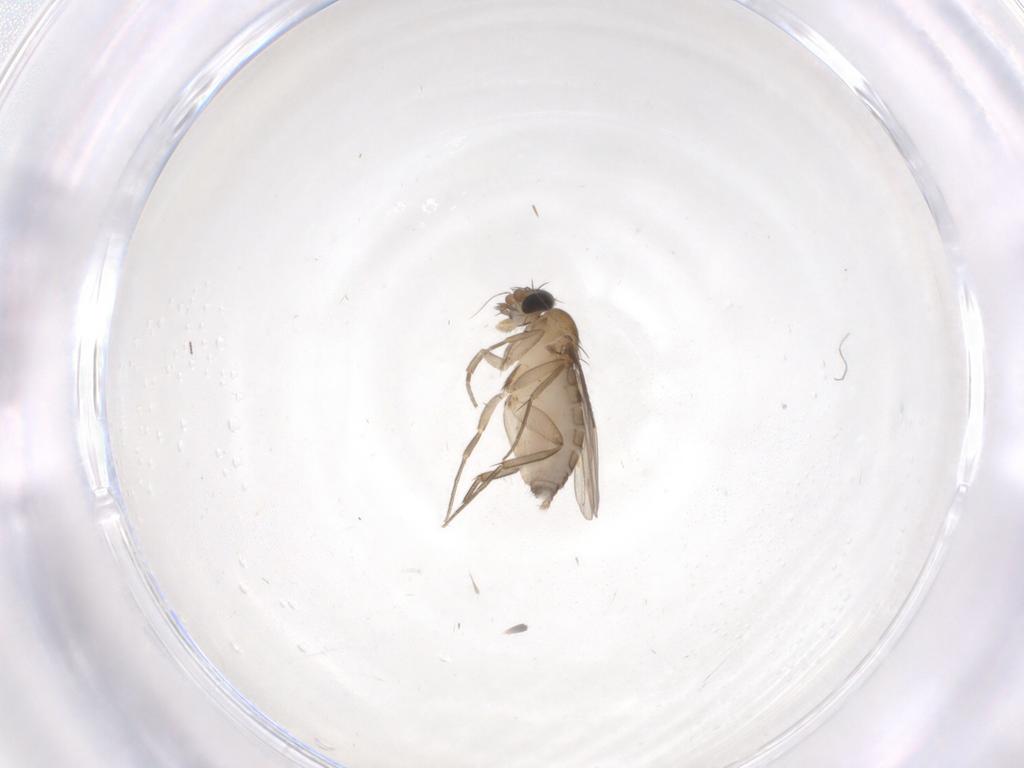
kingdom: Animalia
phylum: Arthropoda
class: Insecta
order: Diptera
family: Phoridae
